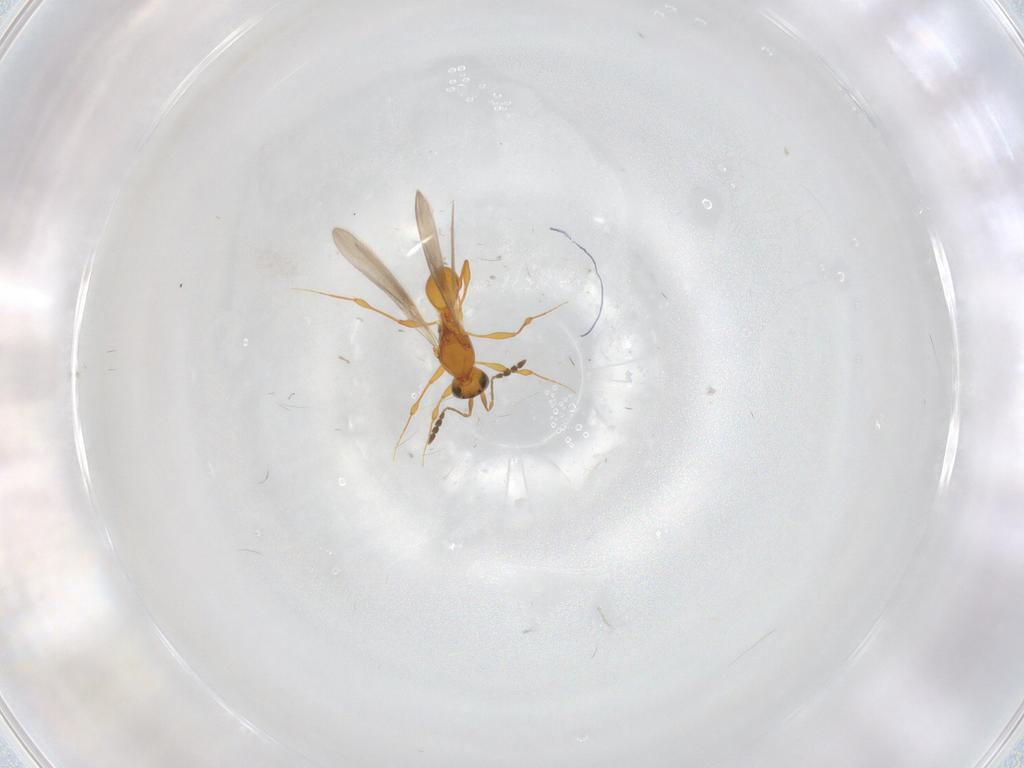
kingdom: Animalia
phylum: Arthropoda
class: Insecta
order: Hymenoptera
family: Platygastridae
